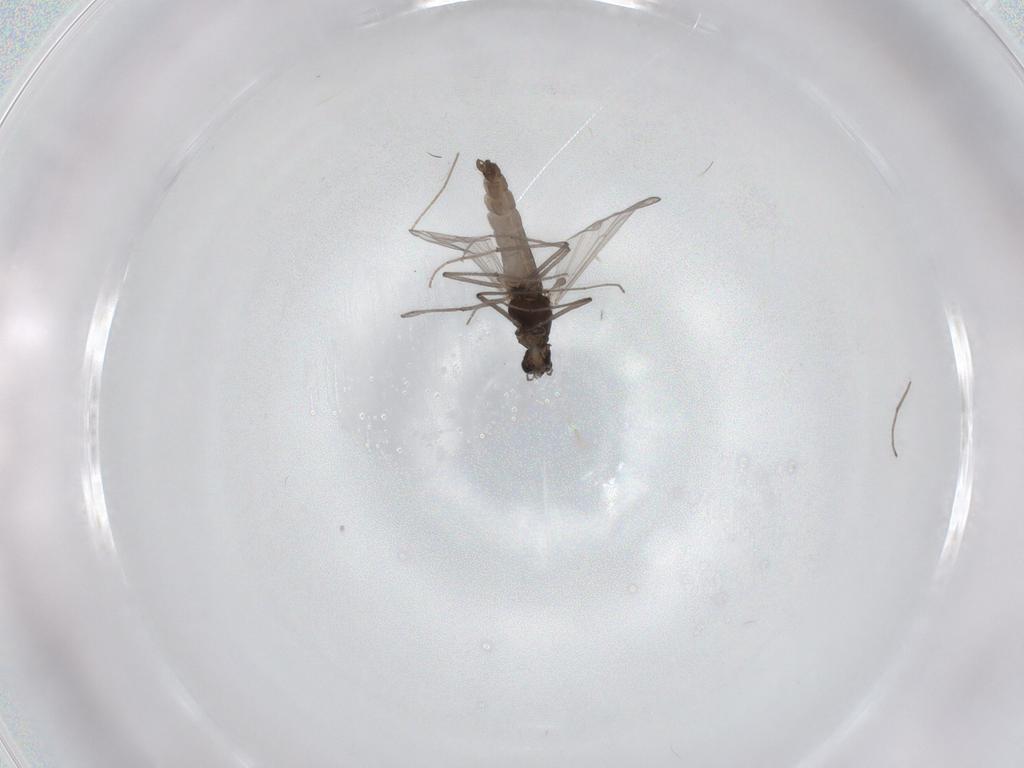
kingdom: Animalia
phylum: Arthropoda
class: Insecta
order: Diptera
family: Chironomidae
